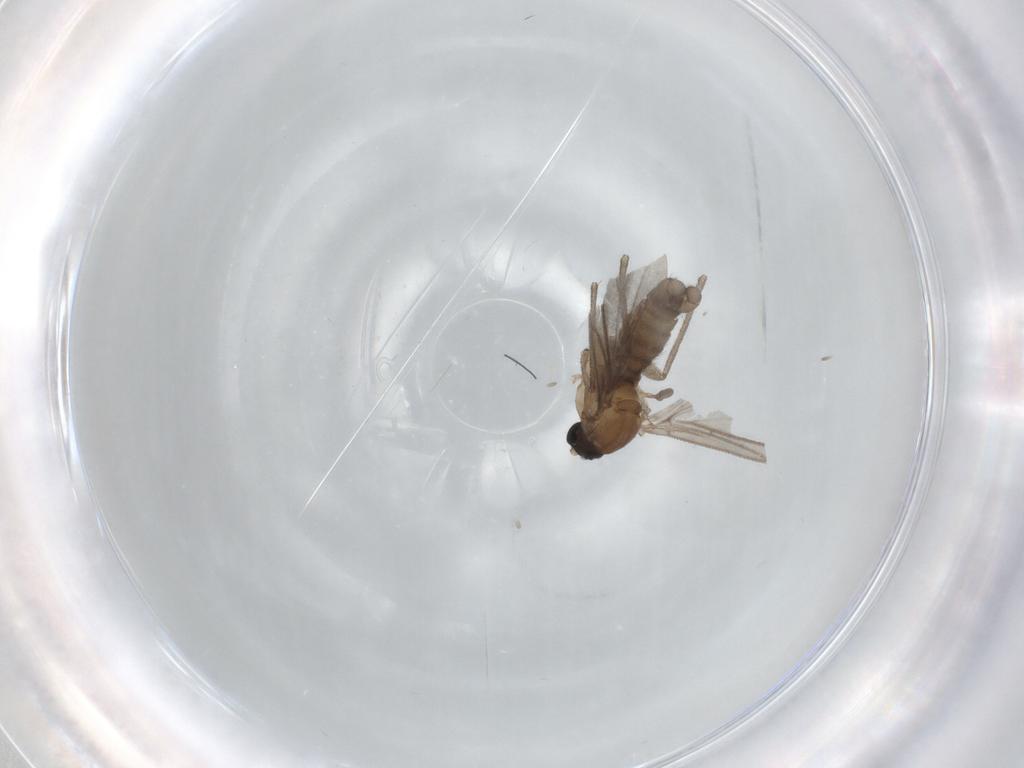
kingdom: Animalia
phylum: Arthropoda
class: Insecta
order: Diptera
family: Sciaridae
